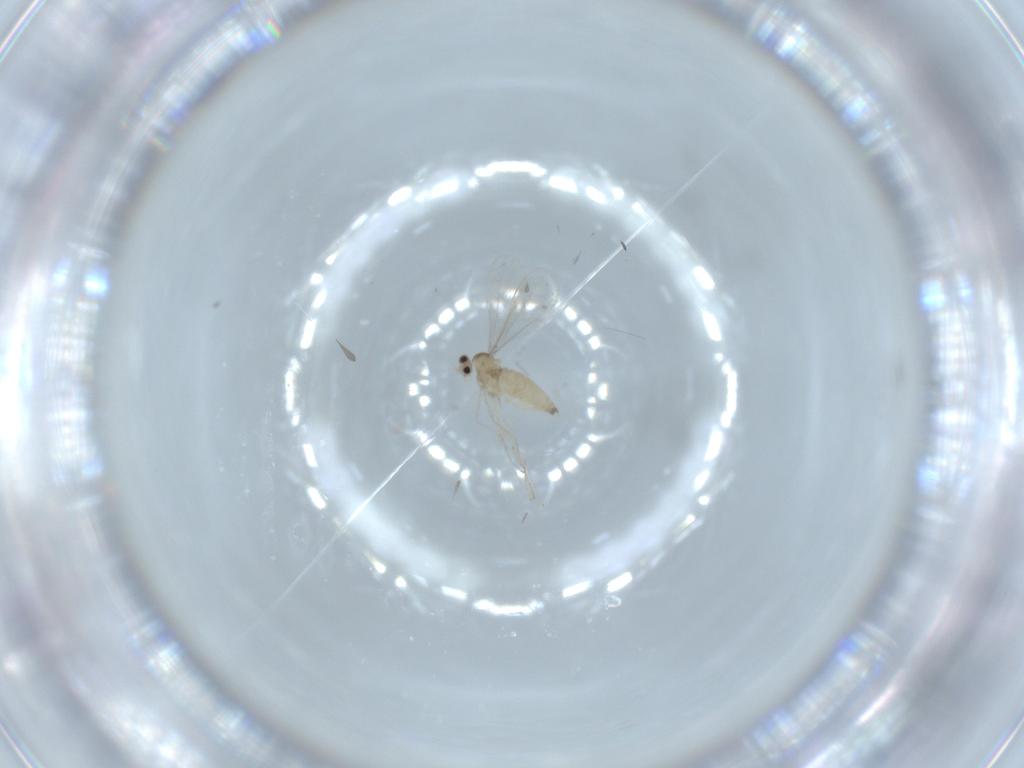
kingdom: Animalia
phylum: Arthropoda
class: Insecta
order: Diptera
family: Cecidomyiidae
